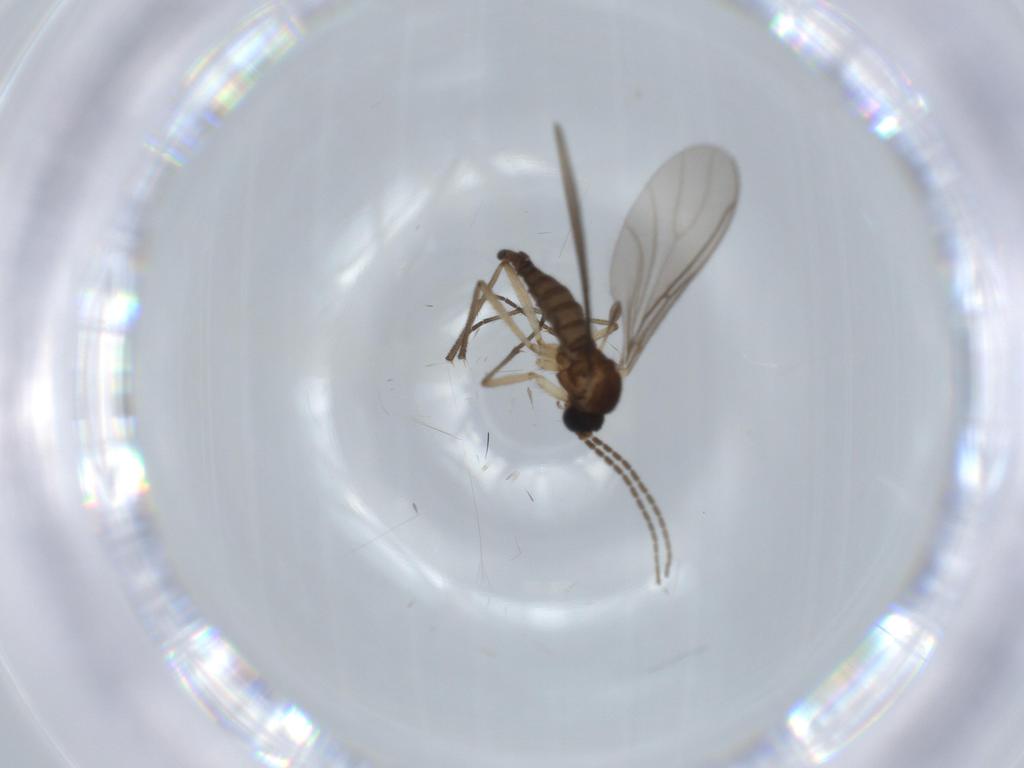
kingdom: Animalia
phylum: Arthropoda
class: Insecta
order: Diptera
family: Sciaridae
